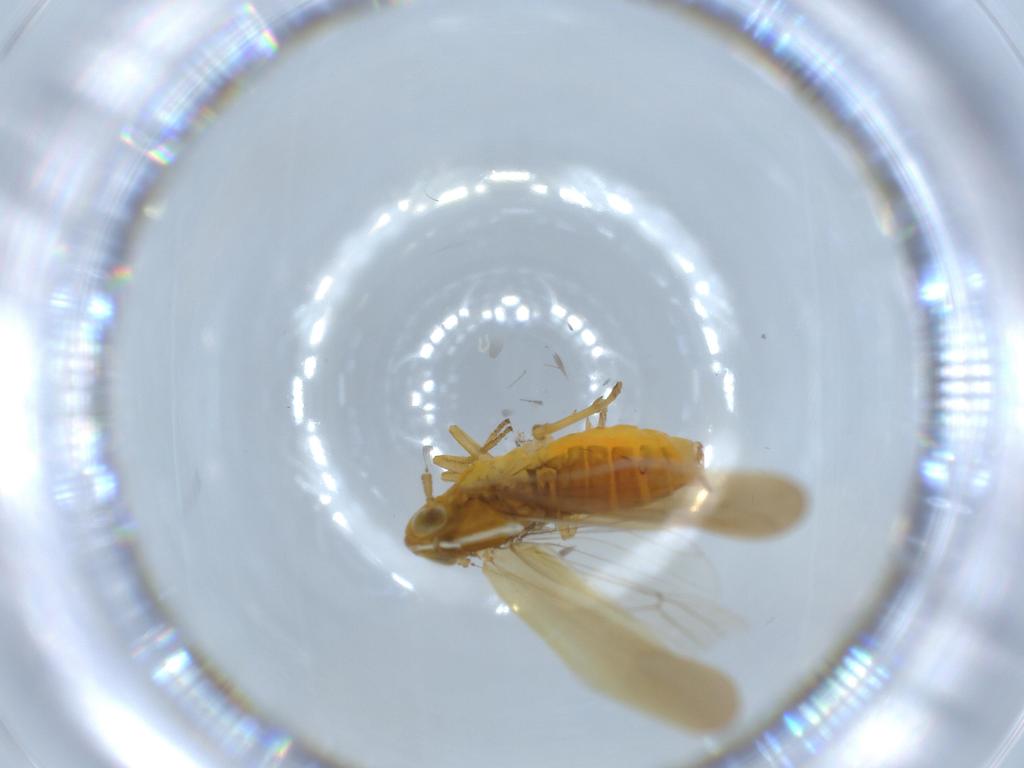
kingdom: Animalia
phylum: Arthropoda
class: Insecta
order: Hemiptera
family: Delphacidae
